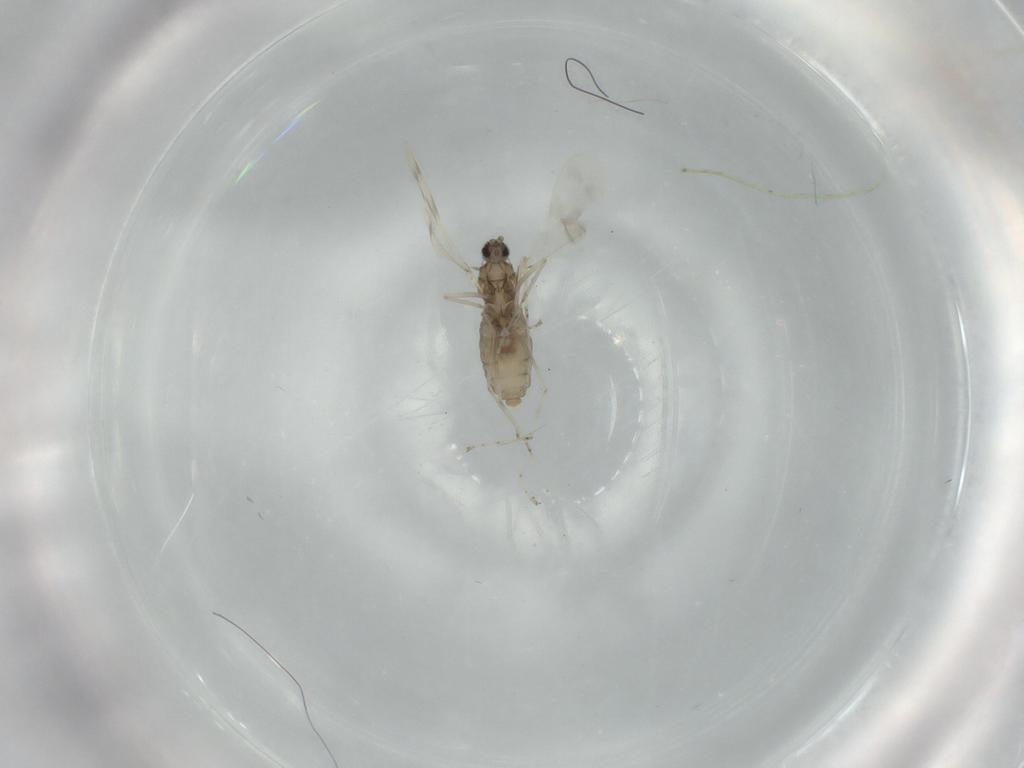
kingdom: Animalia
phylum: Arthropoda
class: Insecta
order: Diptera
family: Cecidomyiidae
